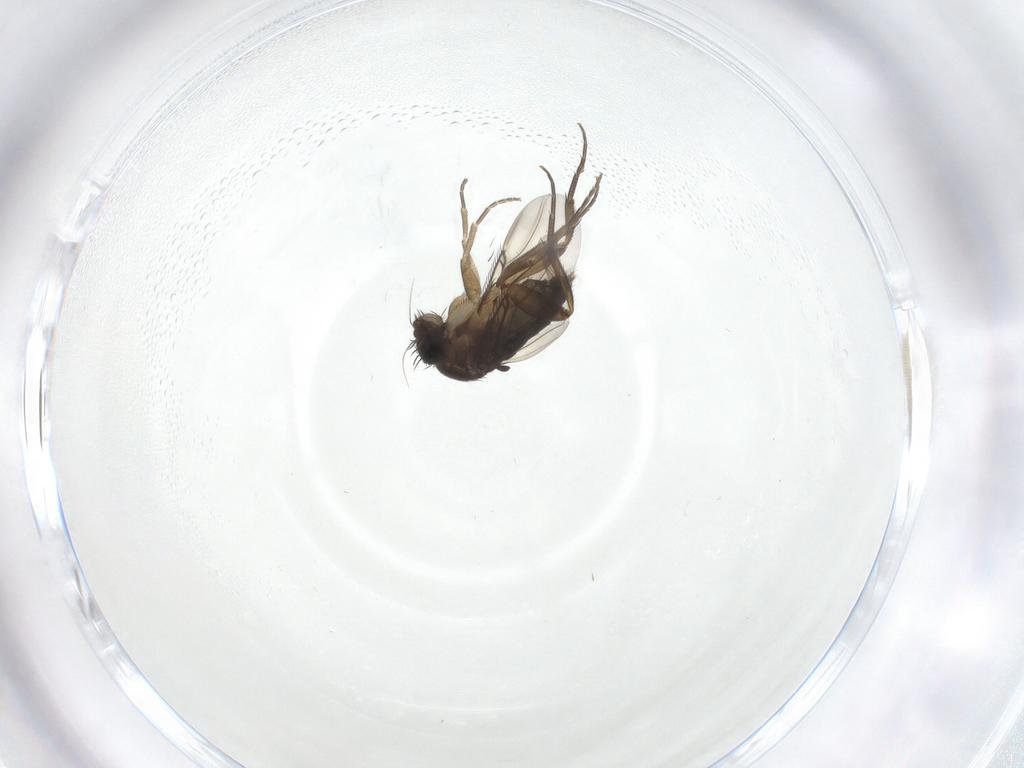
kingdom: Animalia
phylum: Arthropoda
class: Insecta
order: Diptera
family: Phoridae
